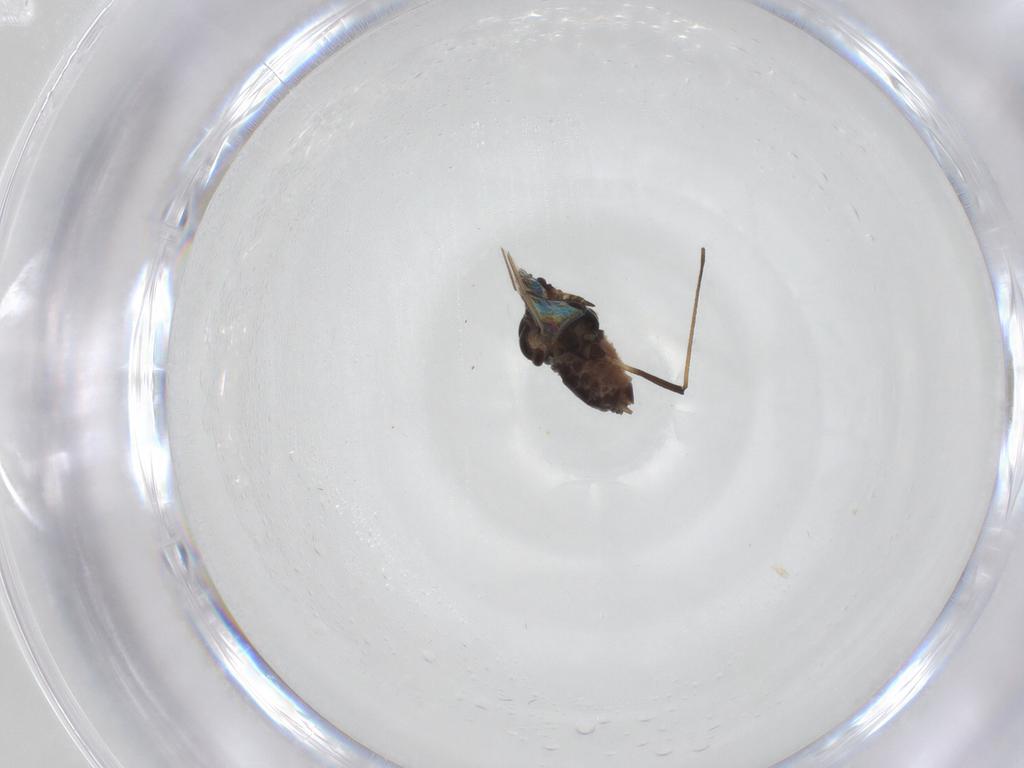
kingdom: Animalia
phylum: Arthropoda
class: Insecta
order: Hemiptera
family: Aphididae
